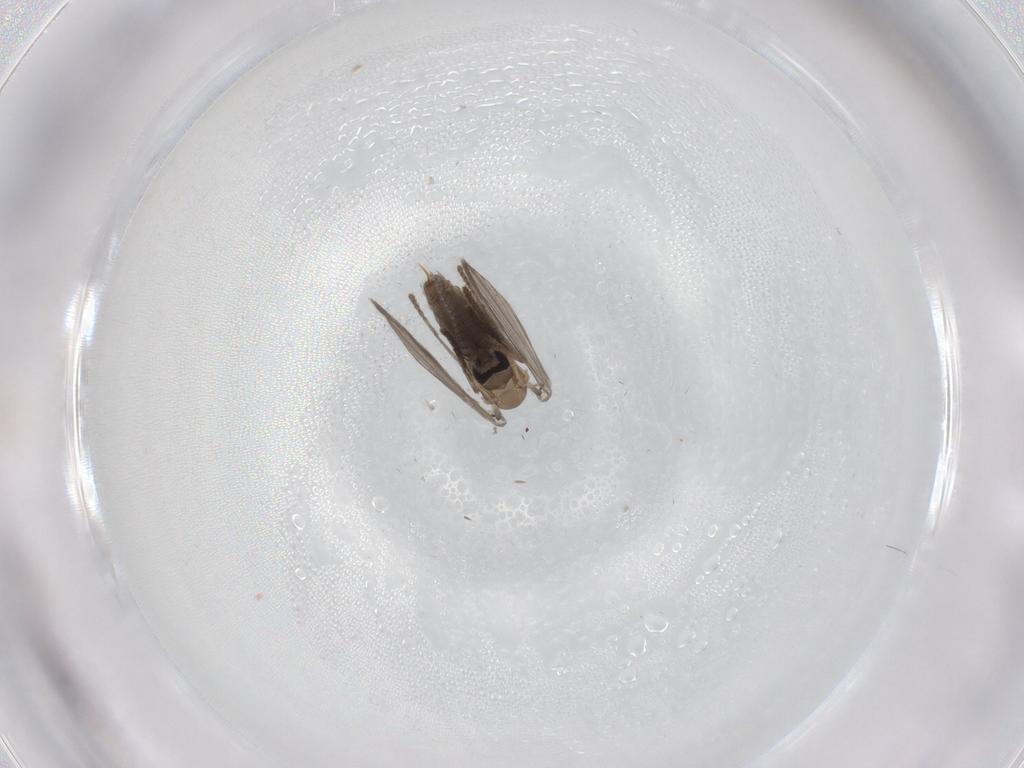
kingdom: Animalia
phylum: Arthropoda
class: Insecta
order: Diptera
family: Psychodidae
